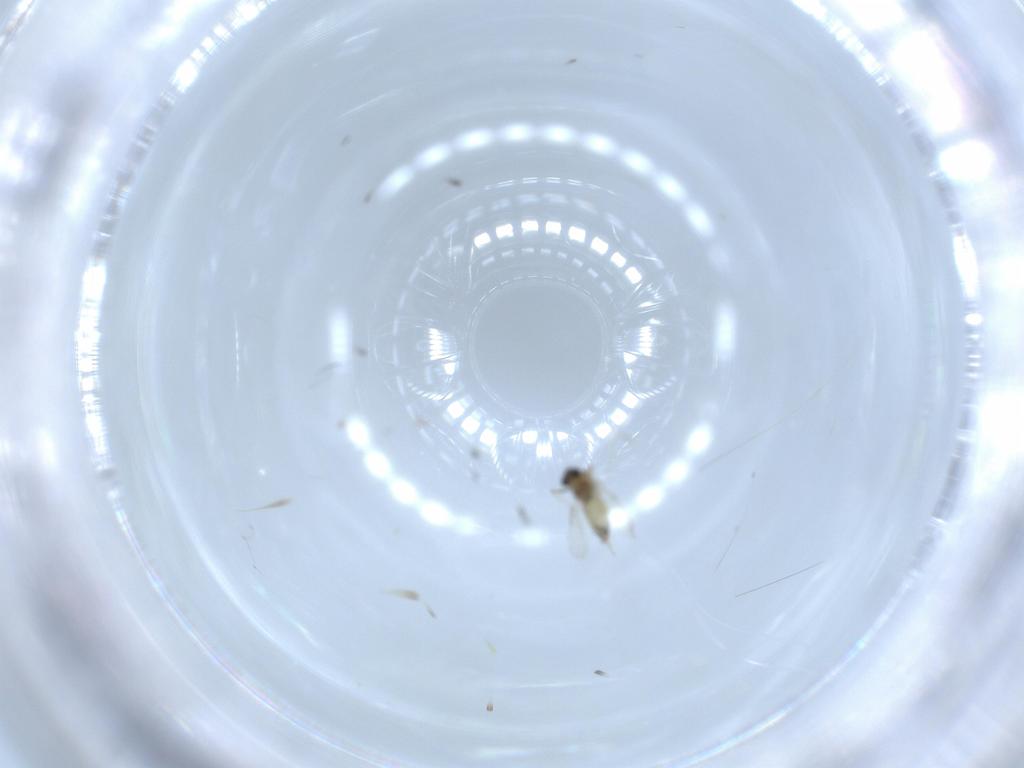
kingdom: Animalia
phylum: Arthropoda
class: Insecta
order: Diptera
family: Chironomidae
